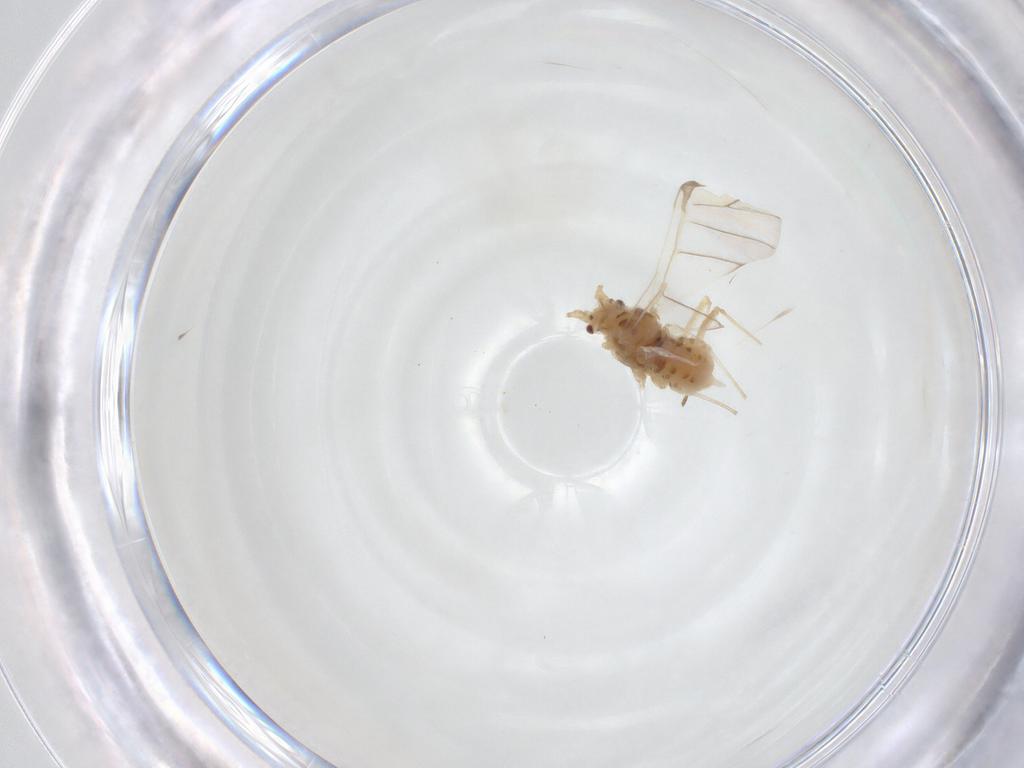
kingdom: Animalia
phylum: Arthropoda
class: Insecta
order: Hemiptera
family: Aphididae
